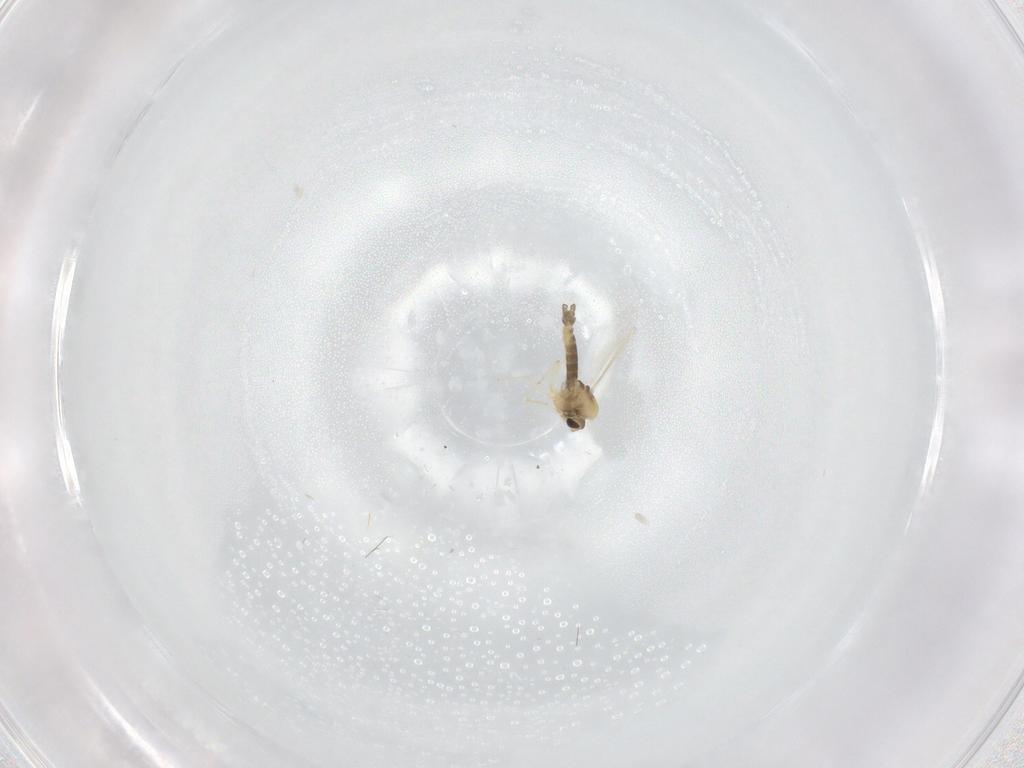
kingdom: Animalia
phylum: Arthropoda
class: Insecta
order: Diptera
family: Chironomidae
